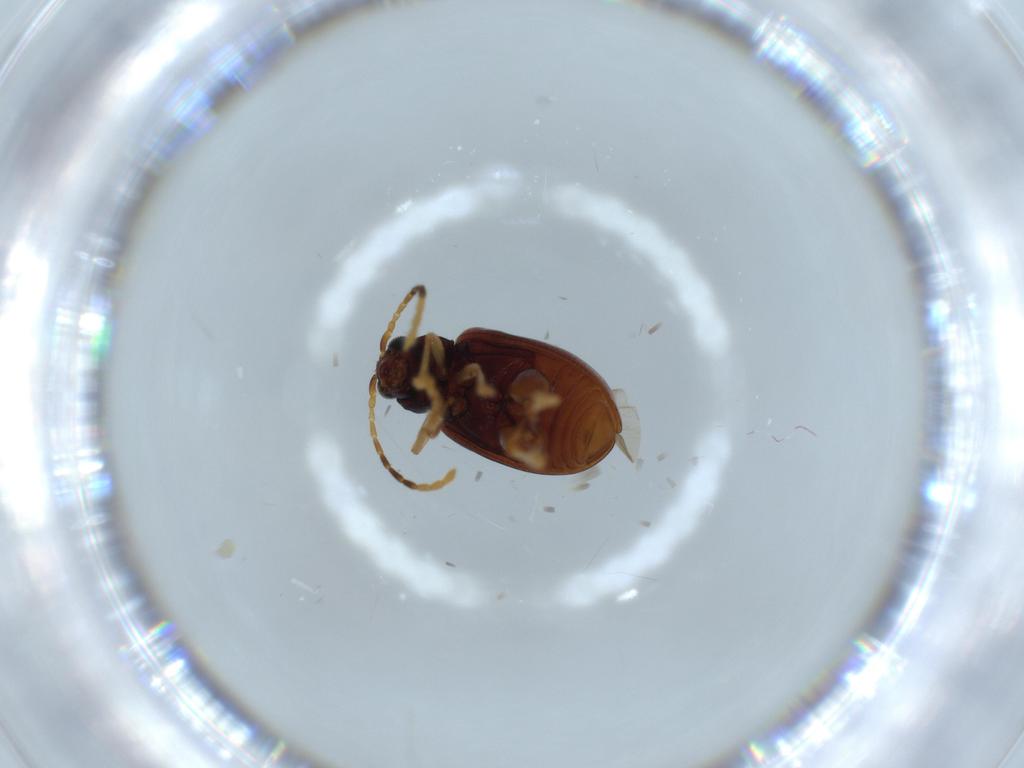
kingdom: Animalia
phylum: Arthropoda
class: Insecta
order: Coleoptera
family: Chrysomelidae
